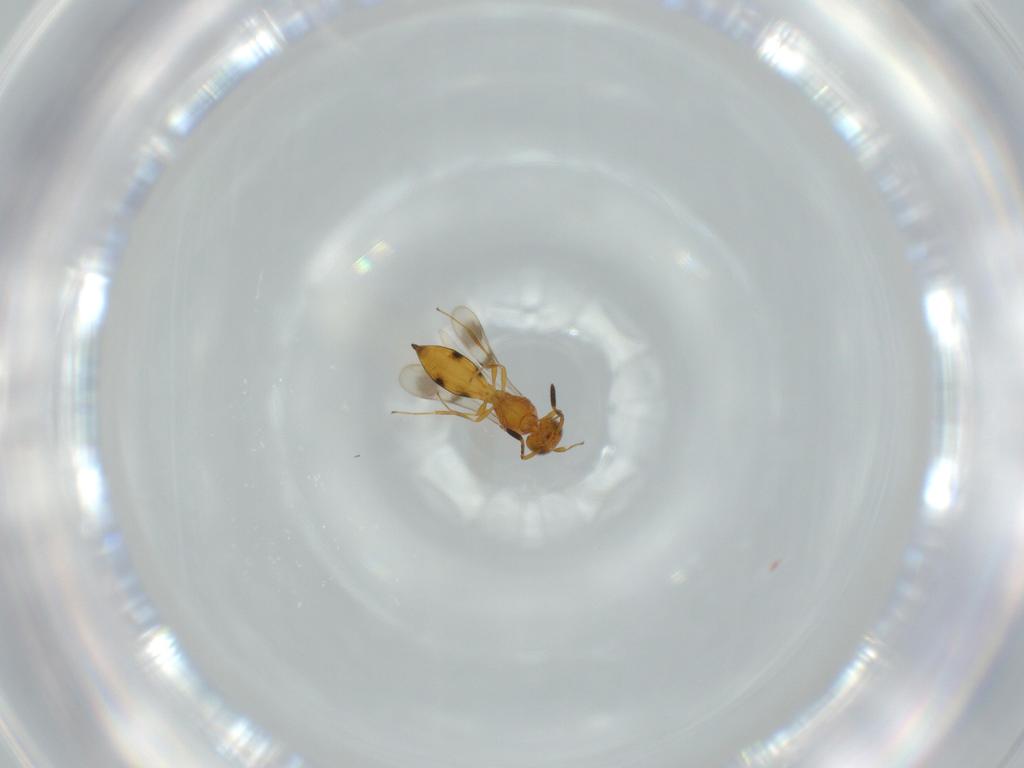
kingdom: Animalia
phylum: Arthropoda
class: Insecta
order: Hymenoptera
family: Scelionidae
